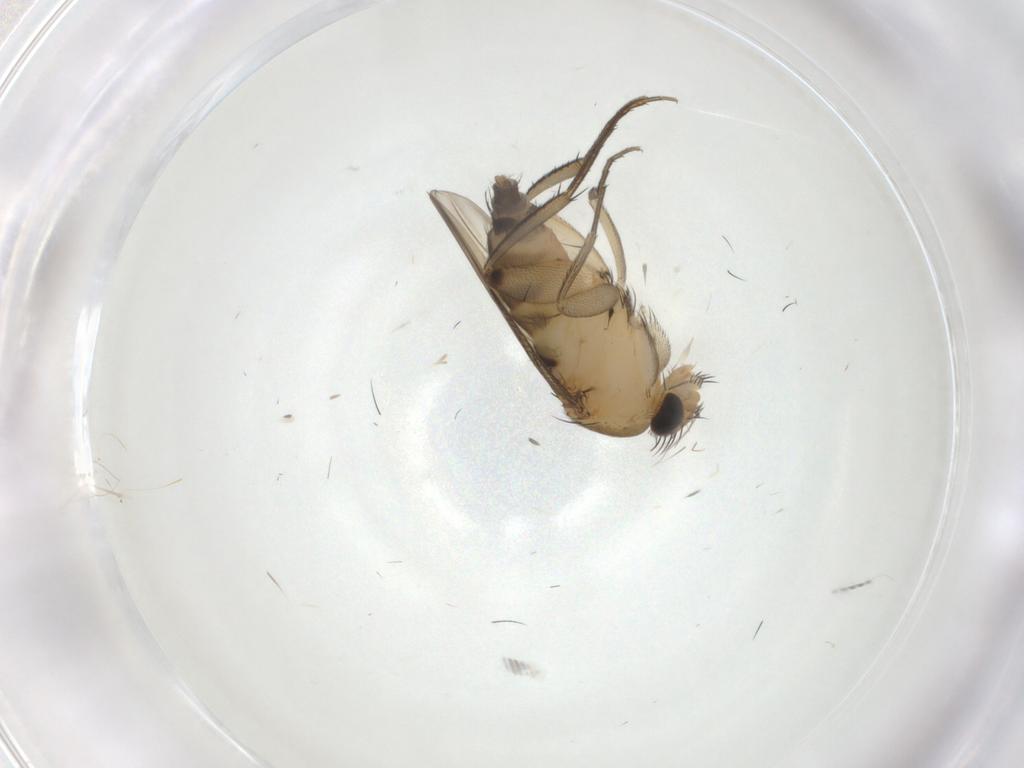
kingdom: Animalia
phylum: Arthropoda
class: Insecta
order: Diptera
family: Phoridae
